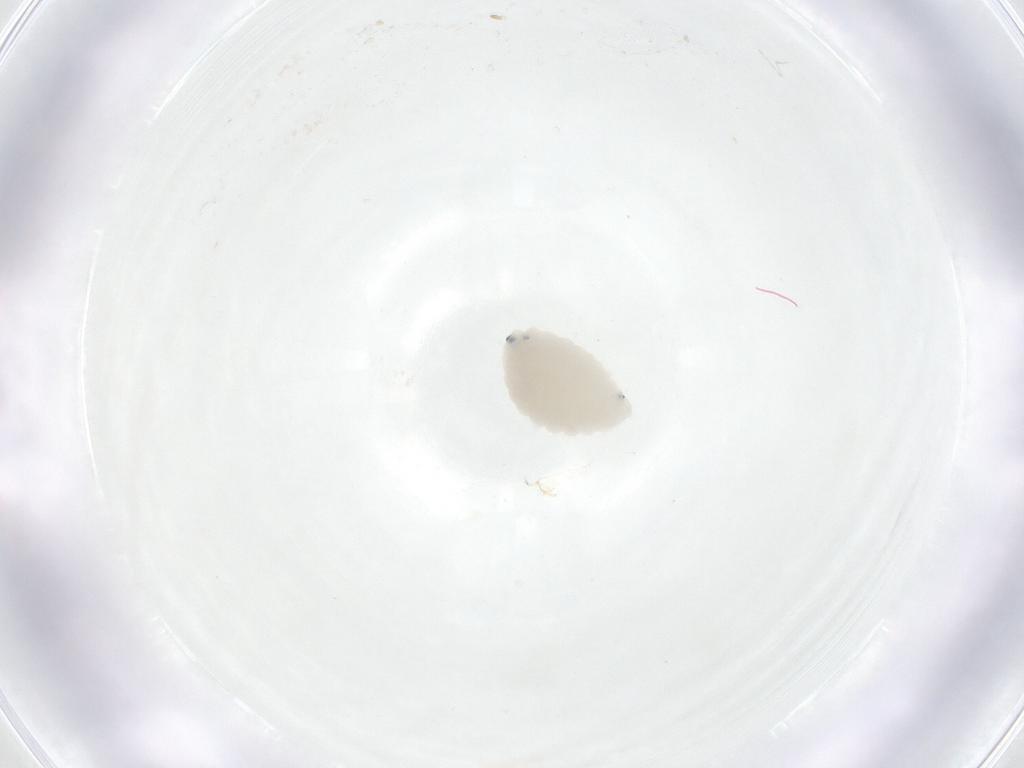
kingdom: Animalia
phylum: Arthropoda
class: Insecta
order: Diptera
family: Fergusoninidae
